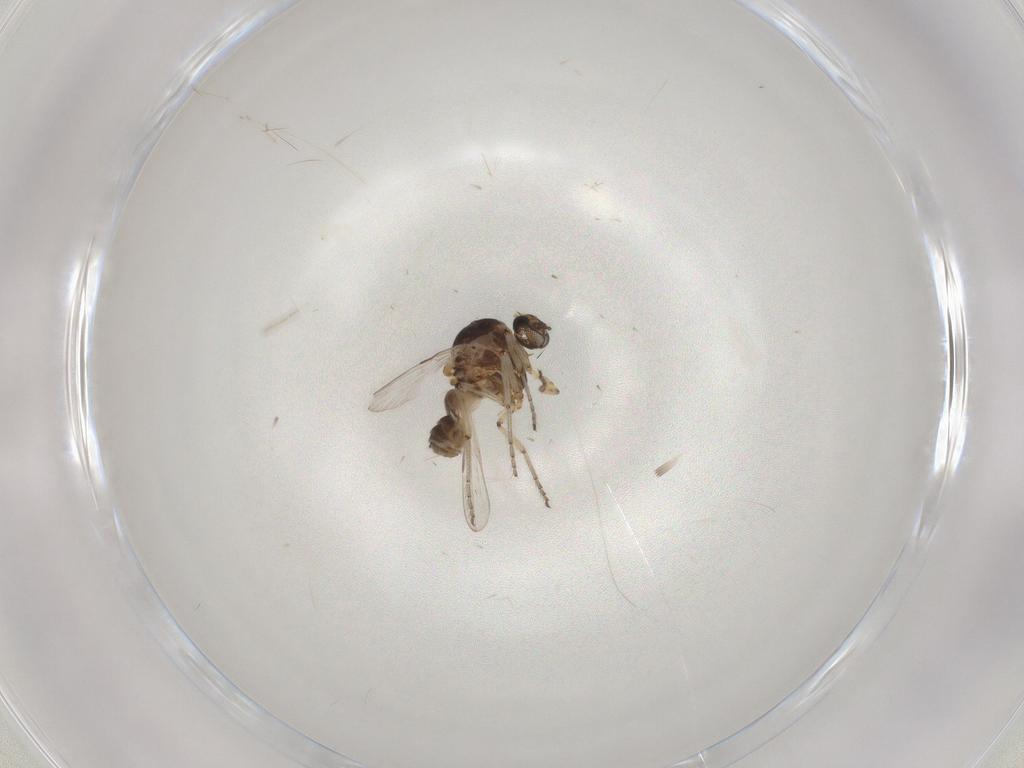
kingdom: Animalia
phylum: Arthropoda
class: Insecta
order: Diptera
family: Ceratopogonidae
